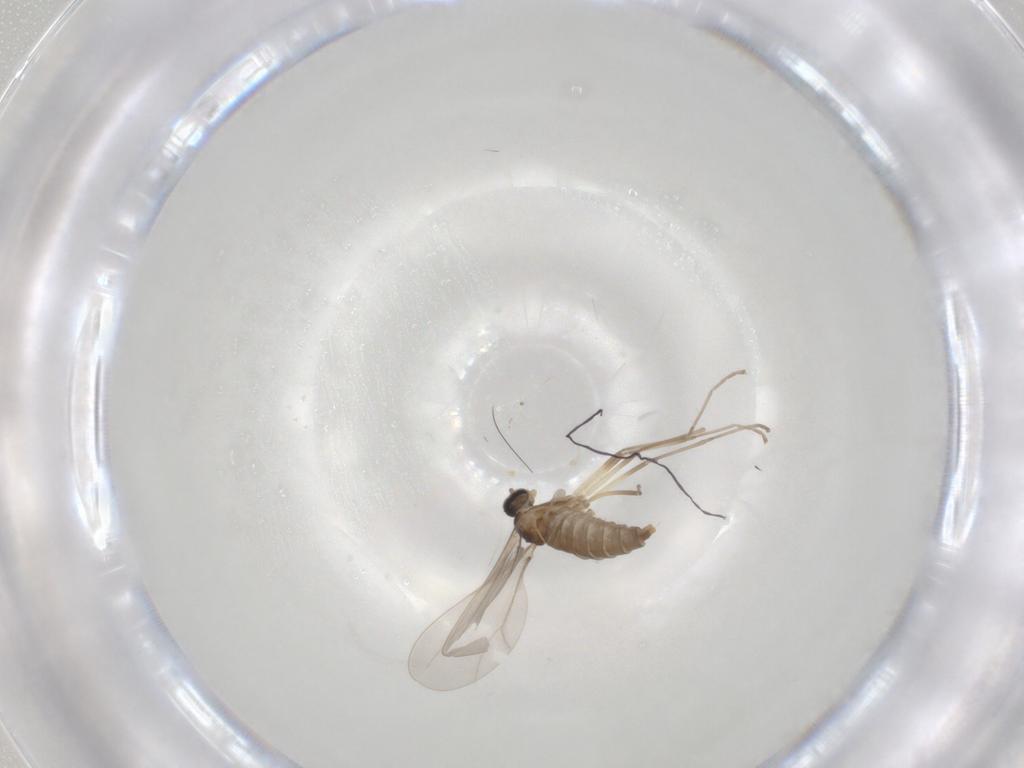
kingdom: Animalia
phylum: Arthropoda
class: Insecta
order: Diptera
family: Cecidomyiidae
